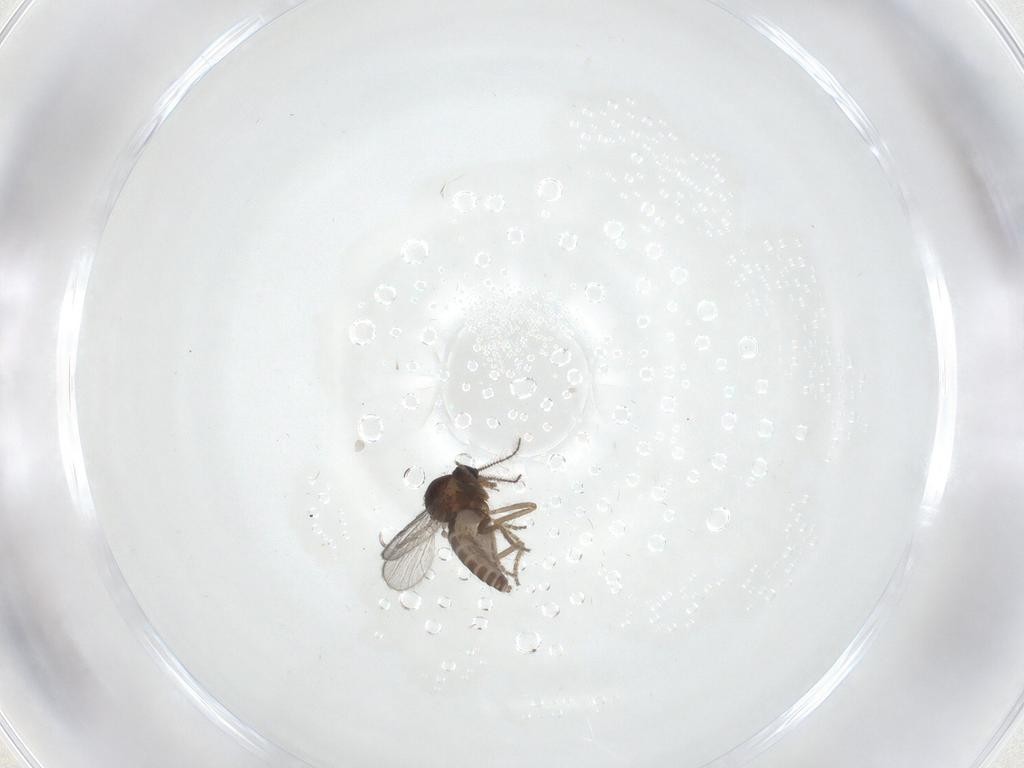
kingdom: Animalia
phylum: Arthropoda
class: Insecta
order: Diptera
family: Ceratopogonidae
